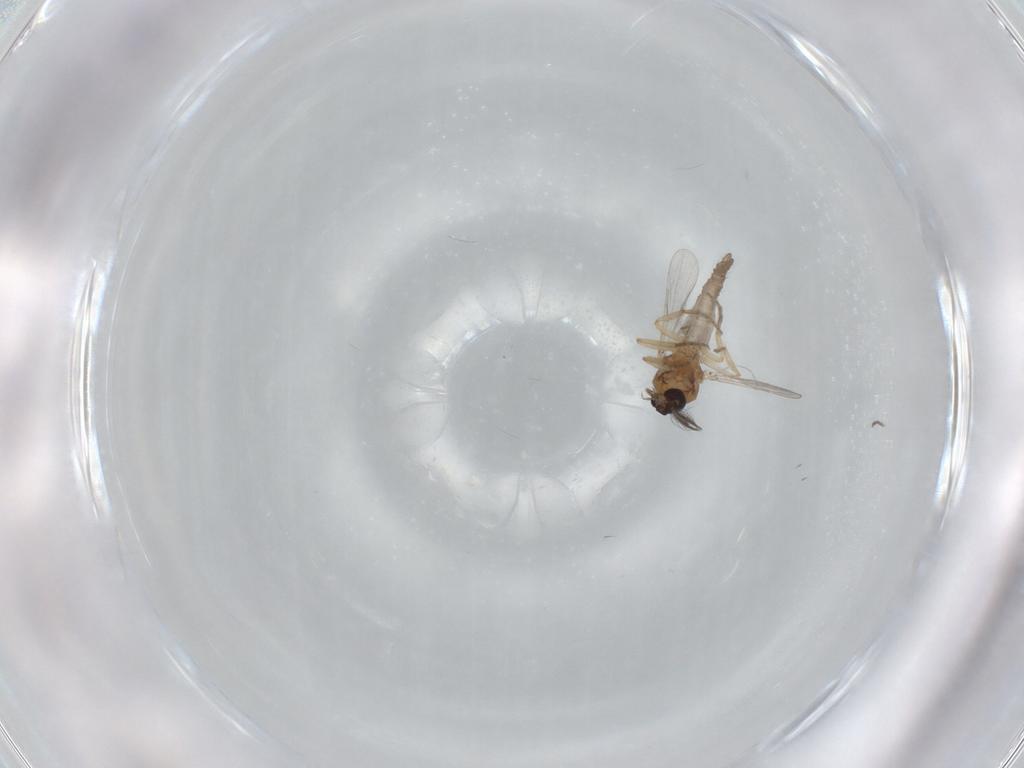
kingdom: Animalia
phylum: Arthropoda
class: Insecta
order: Diptera
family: Ceratopogonidae
